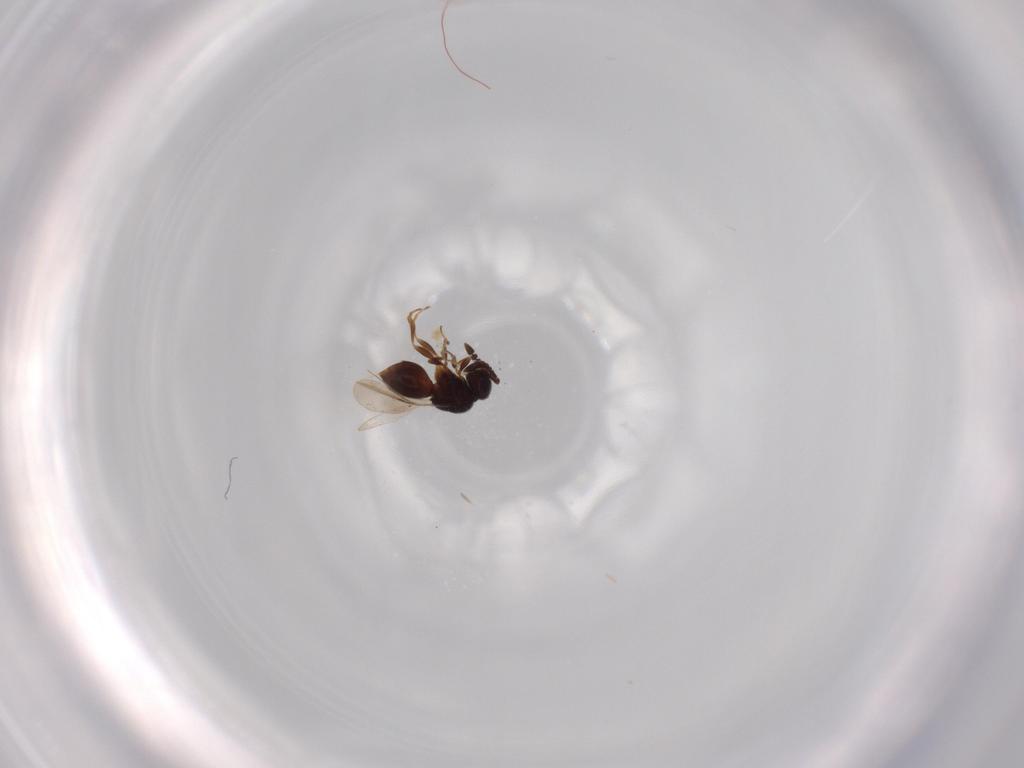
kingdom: Animalia
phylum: Arthropoda
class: Insecta
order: Hymenoptera
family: Ceraphronidae
